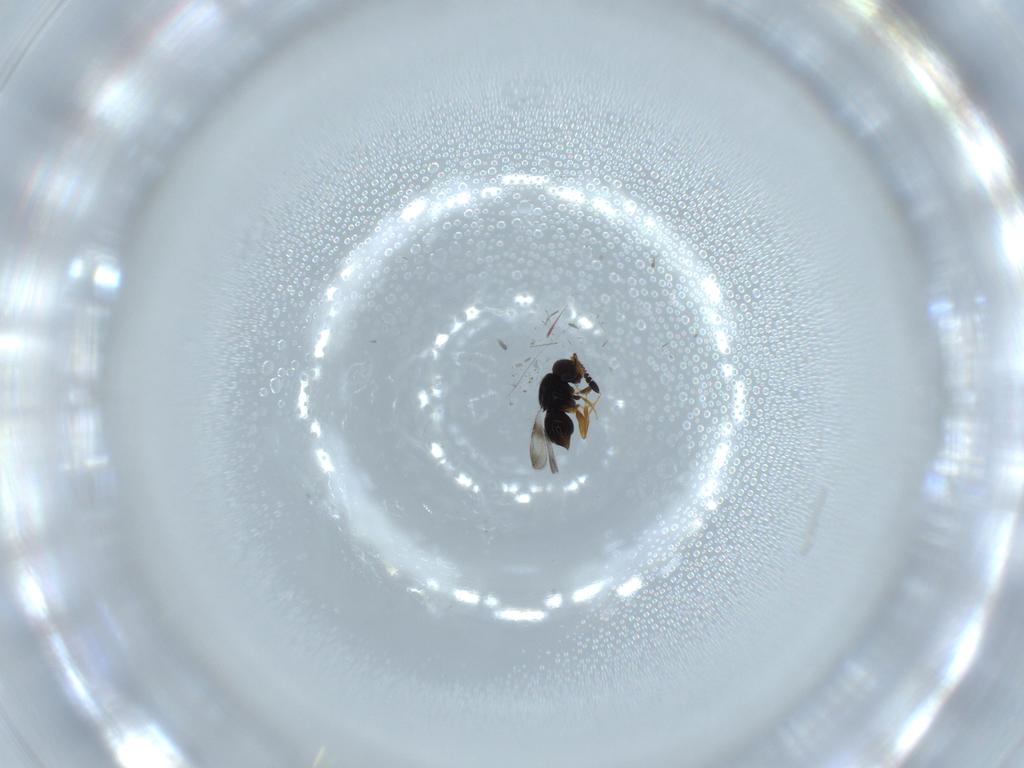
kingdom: Animalia
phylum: Arthropoda
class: Insecta
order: Hymenoptera
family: Ceraphronidae
